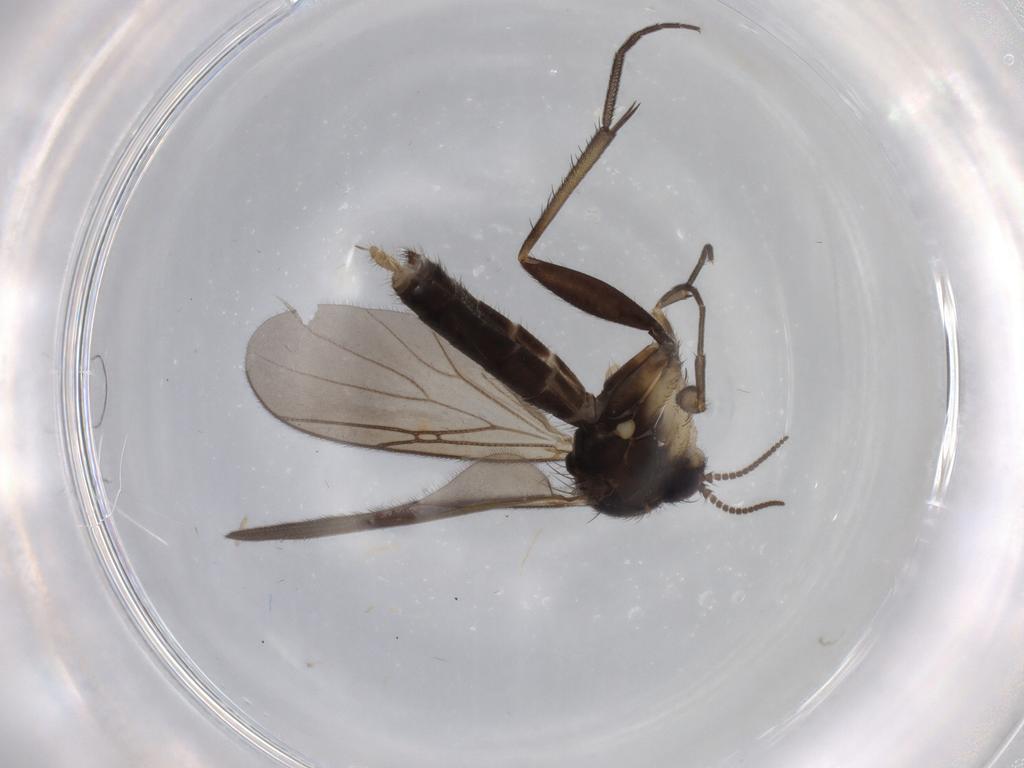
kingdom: Animalia
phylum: Arthropoda
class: Insecta
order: Diptera
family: Mycetophilidae
